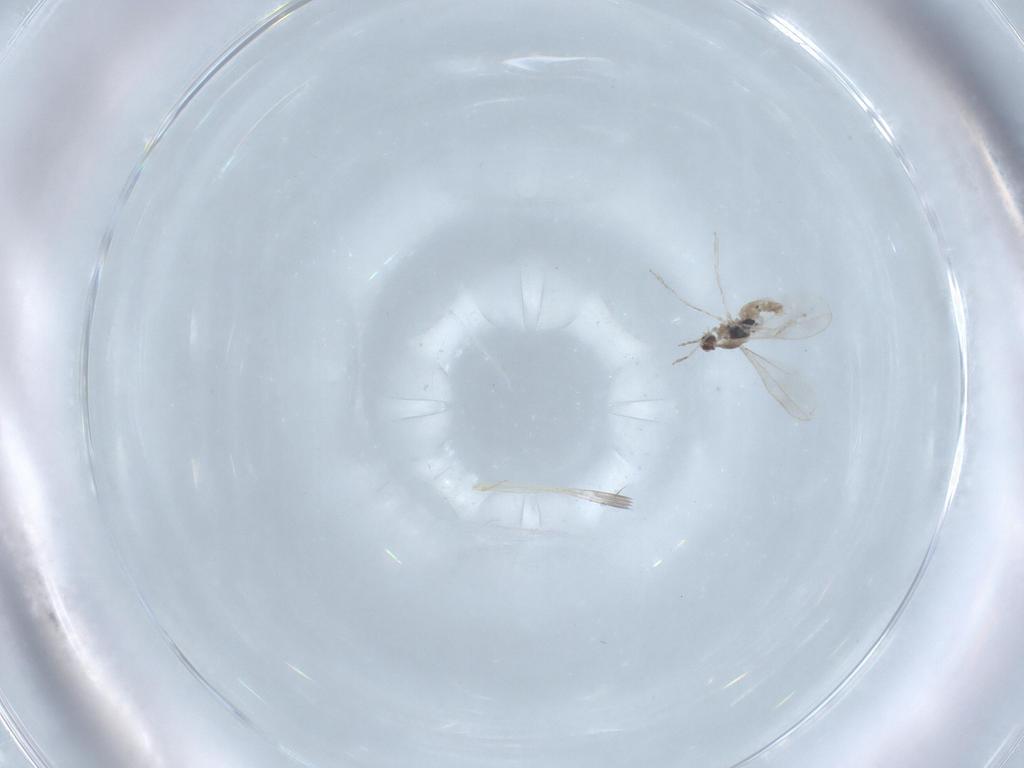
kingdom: Animalia
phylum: Arthropoda
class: Insecta
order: Diptera
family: Cecidomyiidae
